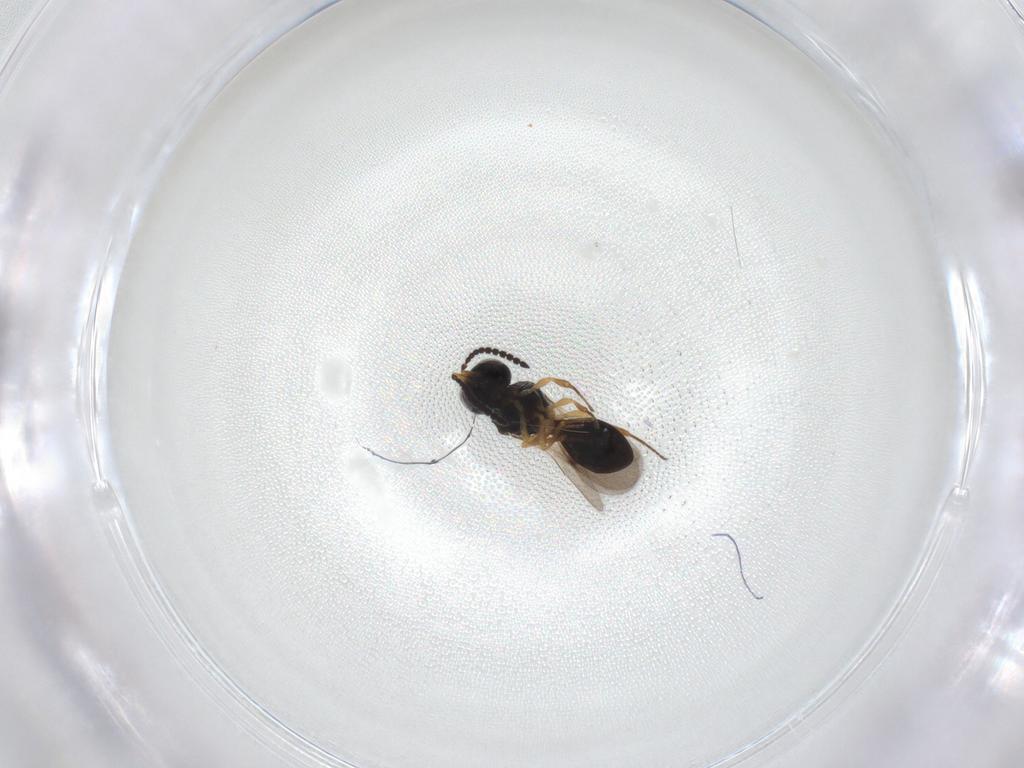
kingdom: Animalia
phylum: Arthropoda
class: Insecta
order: Hymenoptera
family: Scelionidae
